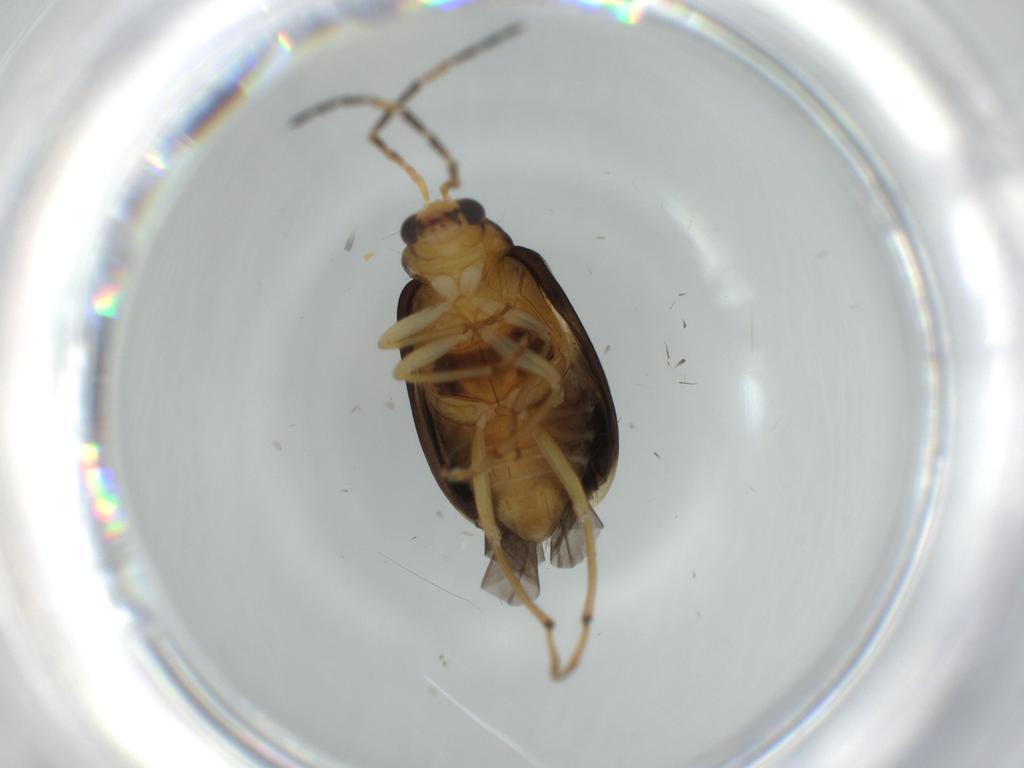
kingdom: Animalia
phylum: Arthropoda
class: Insecta
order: Coleoptera
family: Chrysomelidae
